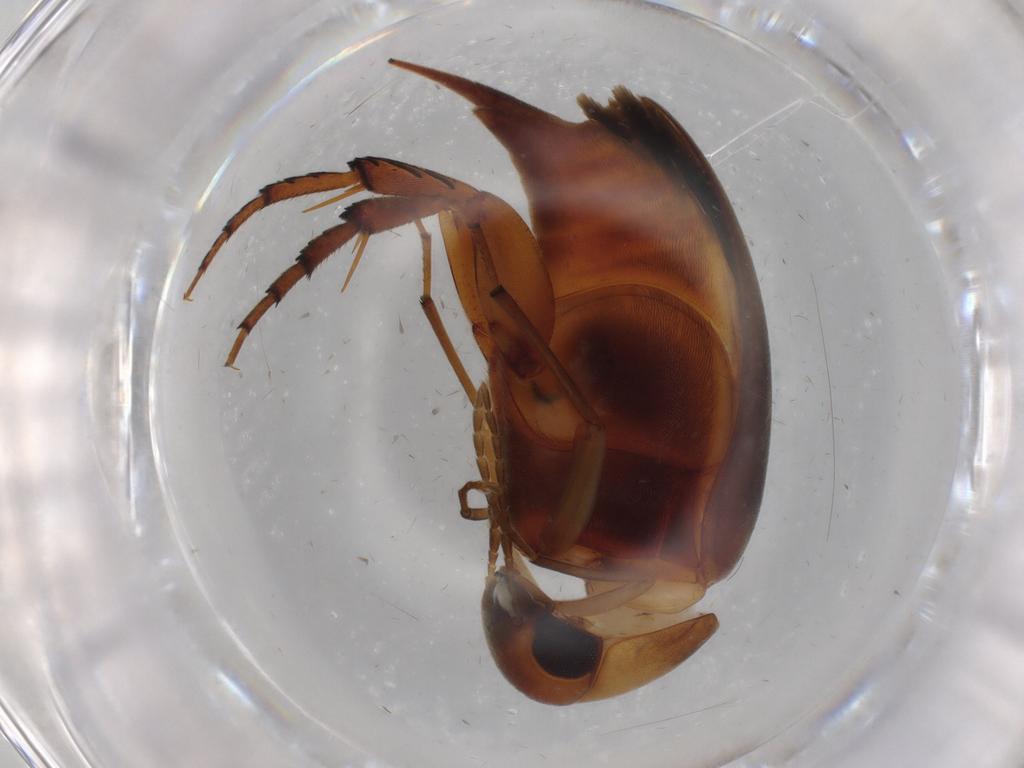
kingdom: Animalia
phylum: Arthropoda
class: Insecta
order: Coleoptera
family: Mordellidae
